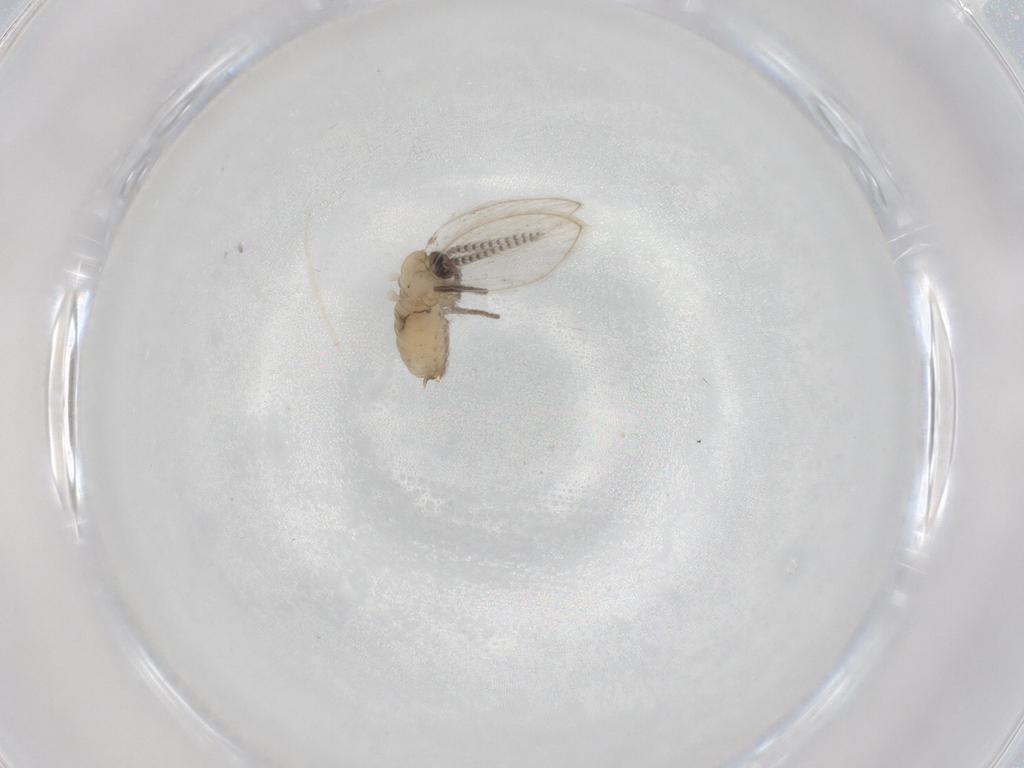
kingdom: Animalia
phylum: Arthropoda
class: Insecta
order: Diptera
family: Psychodidae
